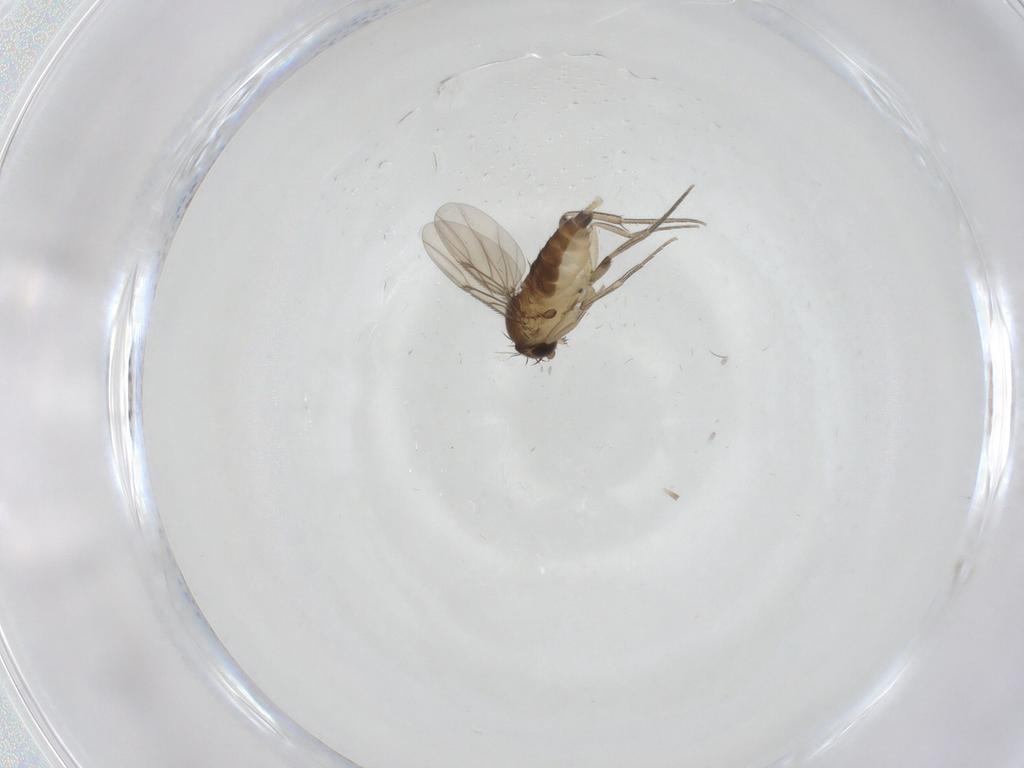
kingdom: Animalia
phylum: Arthropoda
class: Insecta
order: Diptera
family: Phoridae
